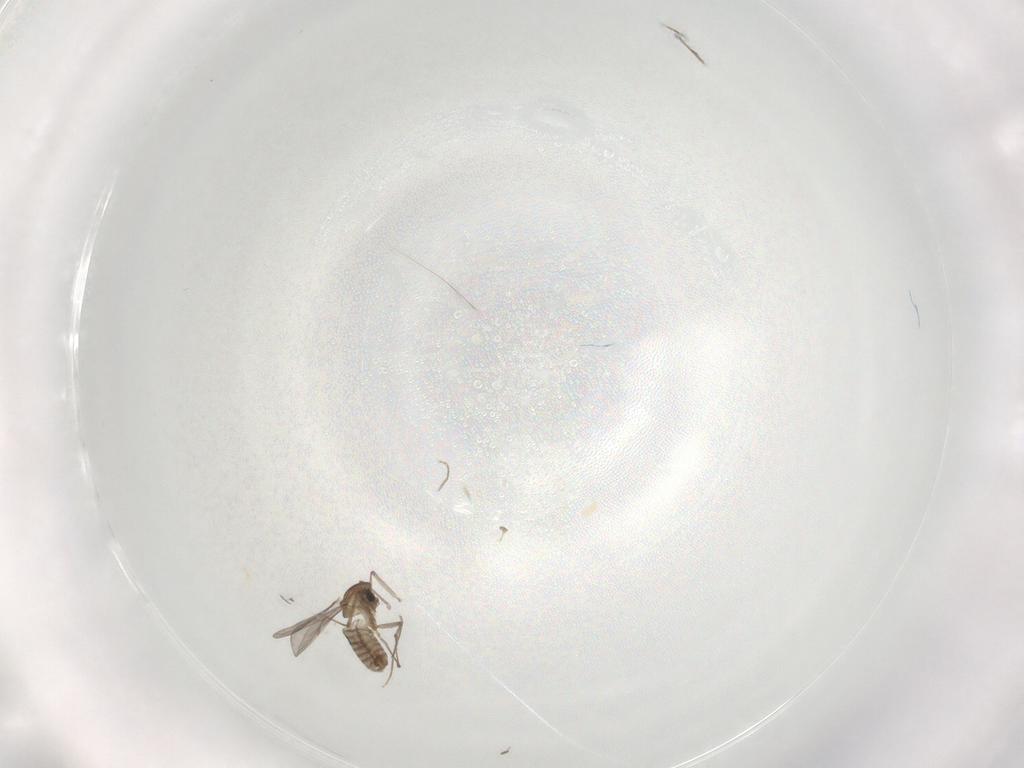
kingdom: Animalia
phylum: Arthropoda
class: Insecta
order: Diptera
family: Chironomidae
